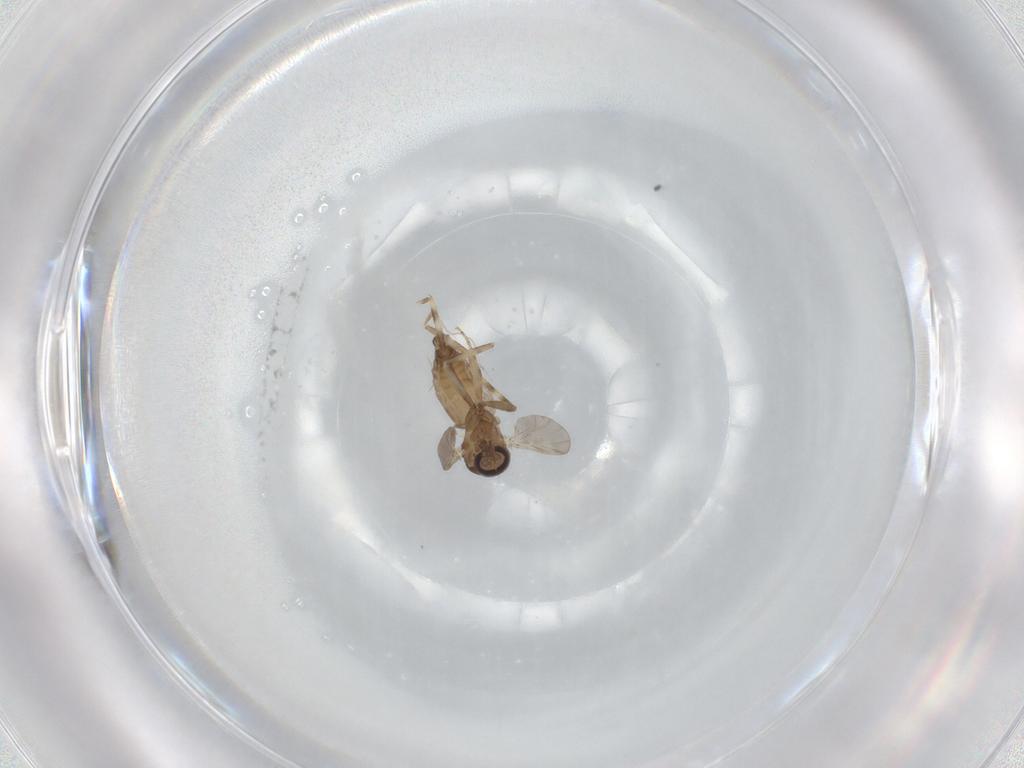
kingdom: Animalia
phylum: Arthropoda
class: Insecta
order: Diptera
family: Ceratopogonidae
